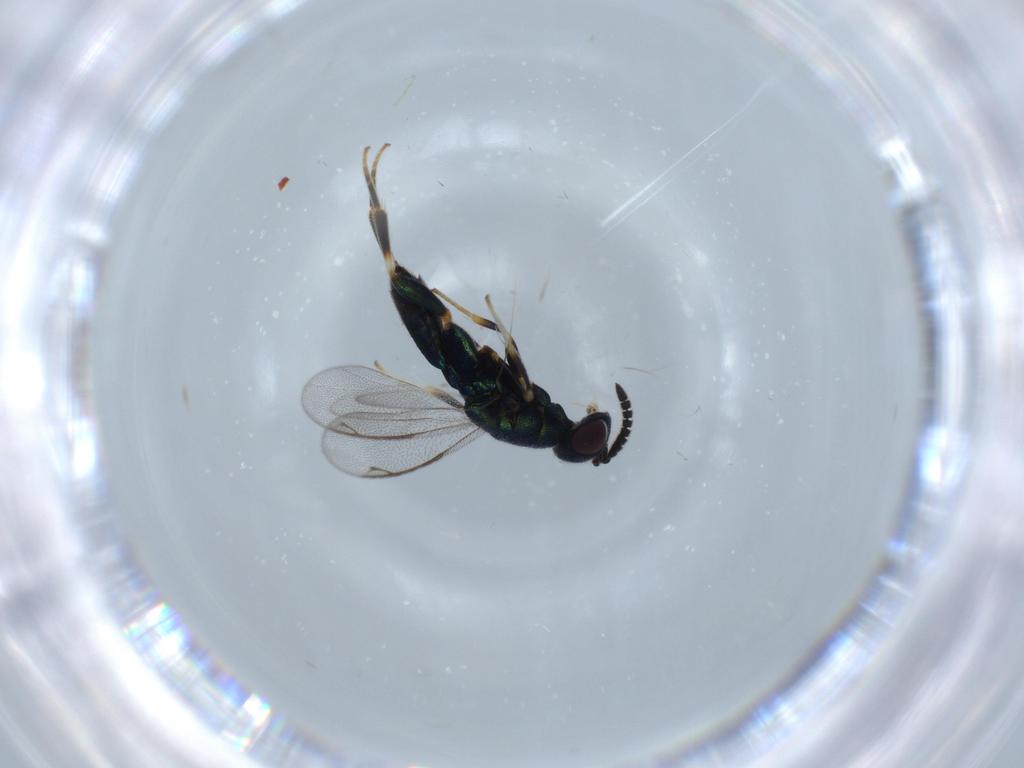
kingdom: Animalia
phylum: Arthropoda
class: Insecta
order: Hymenoptera
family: Cleonyminae
